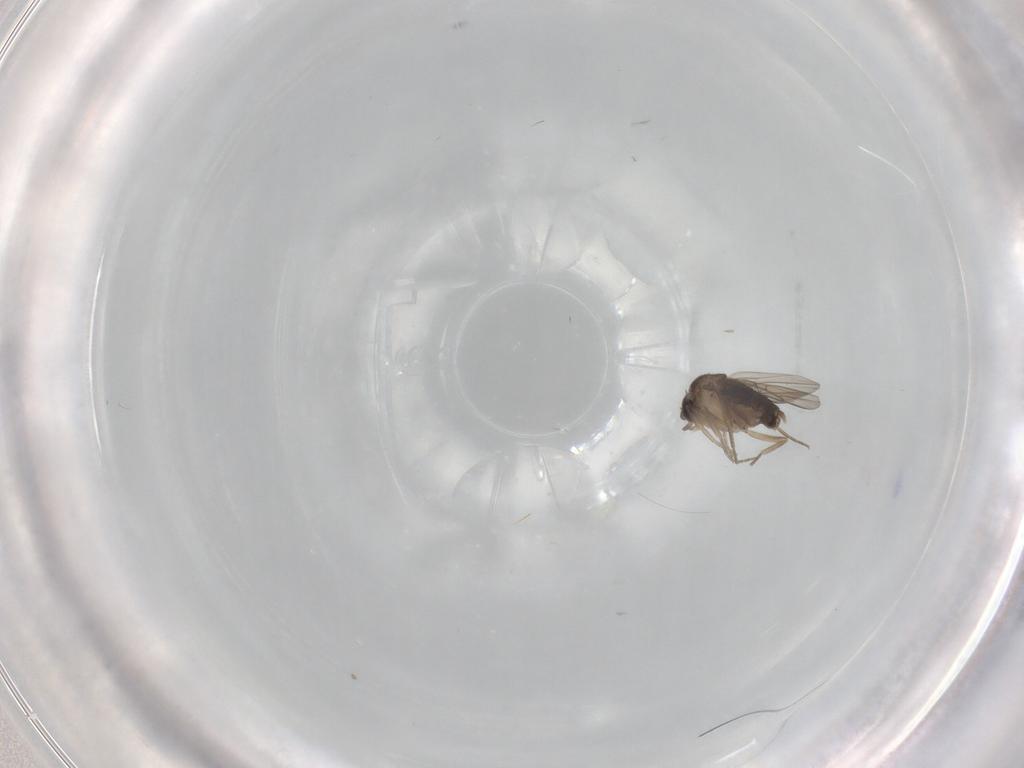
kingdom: Animalia
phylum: Arthropoda
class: Insecta
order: Diptera
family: Phoridae
